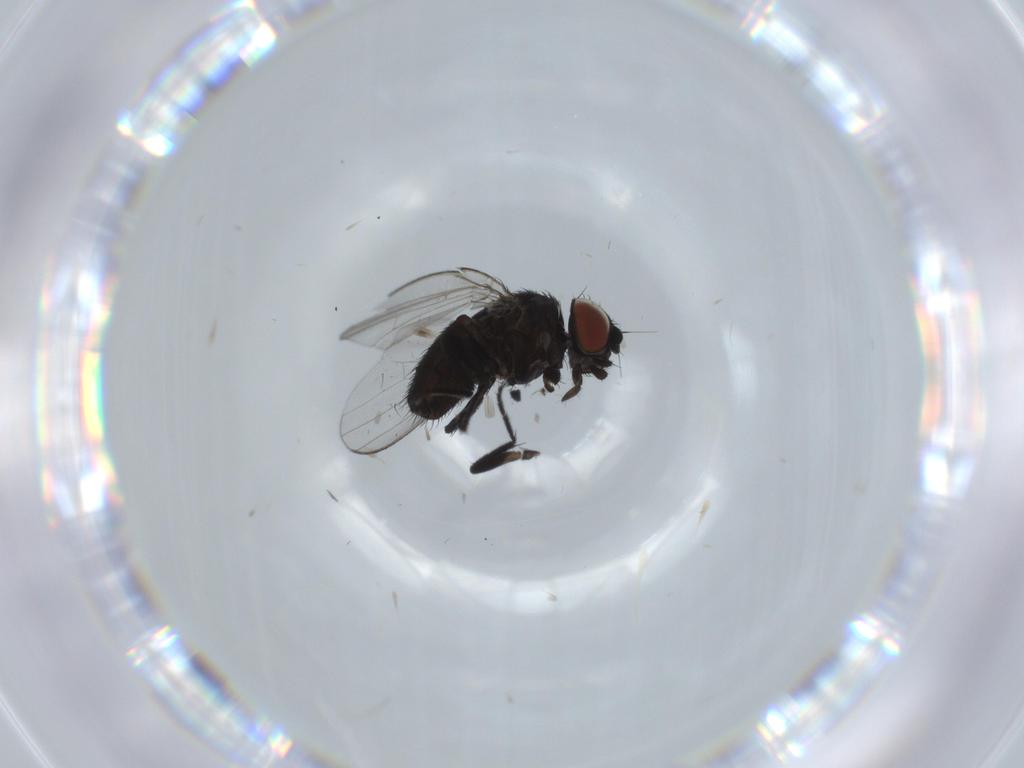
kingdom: Animalia
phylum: Arthropoda
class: Insecta
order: Diptera
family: Milichiidae
